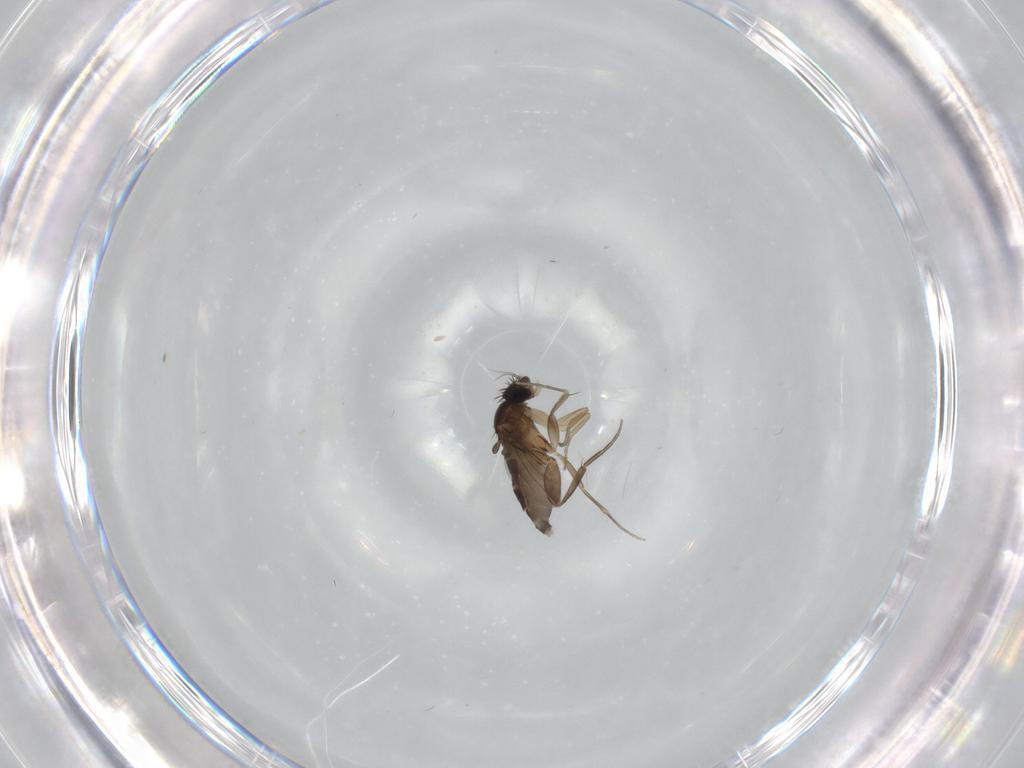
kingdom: Animalia
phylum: Arthropoda
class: Insecta
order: Diptera
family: Phoridae
